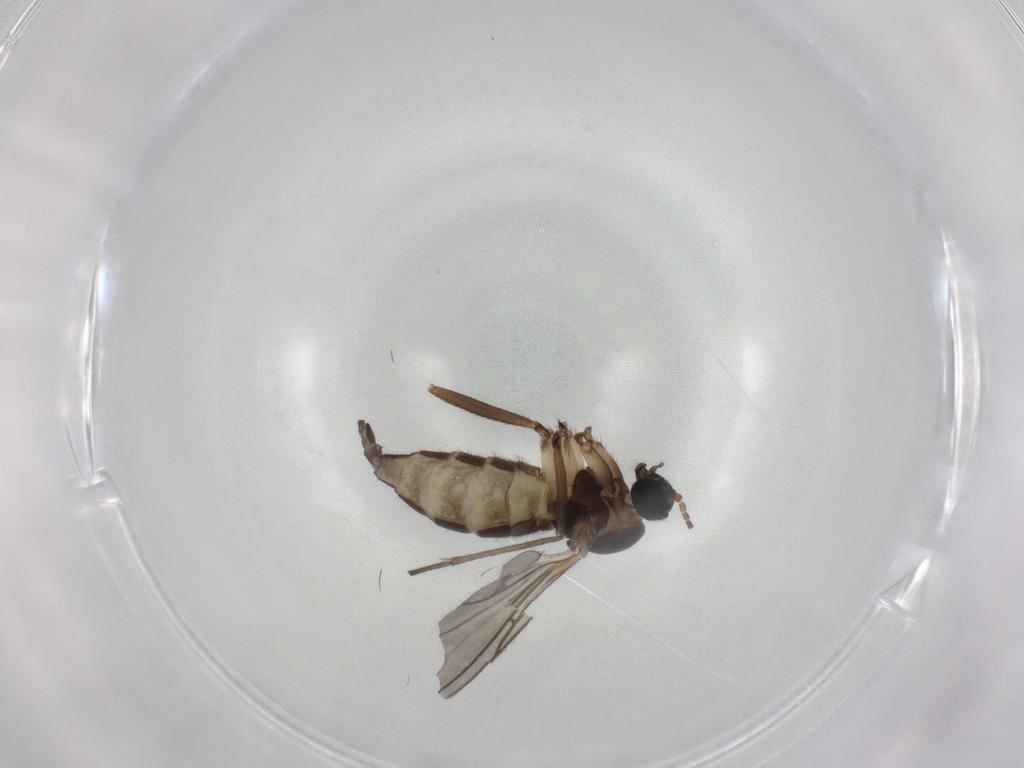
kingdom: Animalia
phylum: Arthropoda
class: Insecta
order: Diptera
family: Sciaridae
